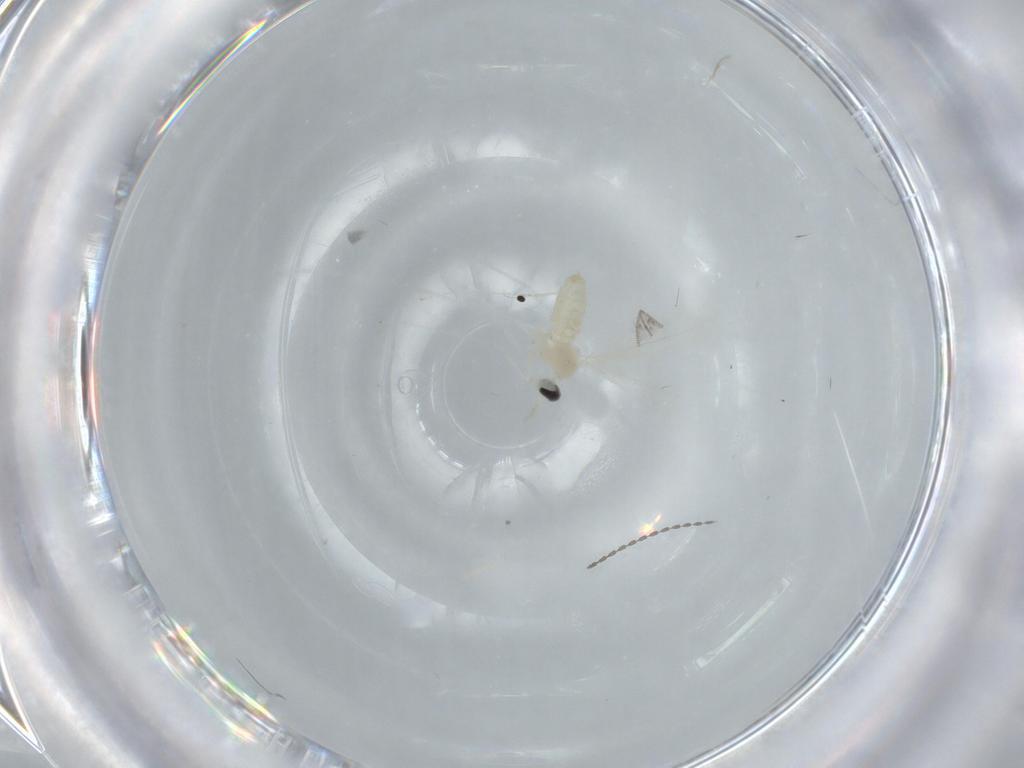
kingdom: Animalia
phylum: Arthropoda
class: Insecta
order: Diptera
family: Cecidomyiidae
